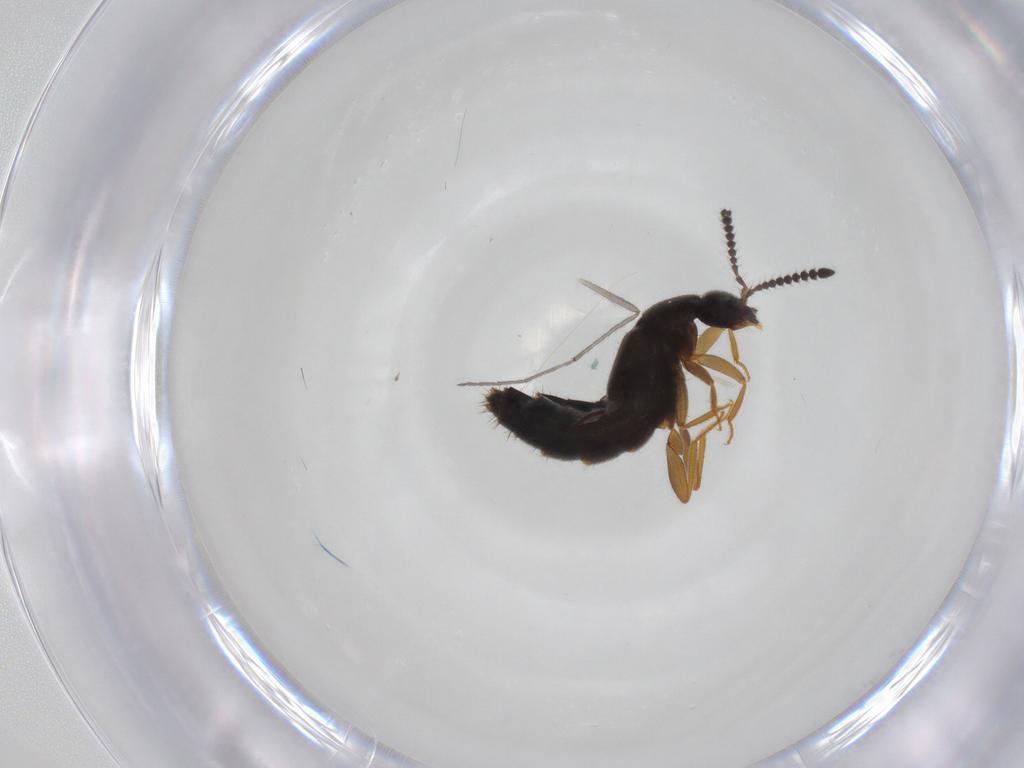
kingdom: Animalia
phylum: Arthropoda
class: Insecta
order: Coleoptera
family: Staphylinidae
